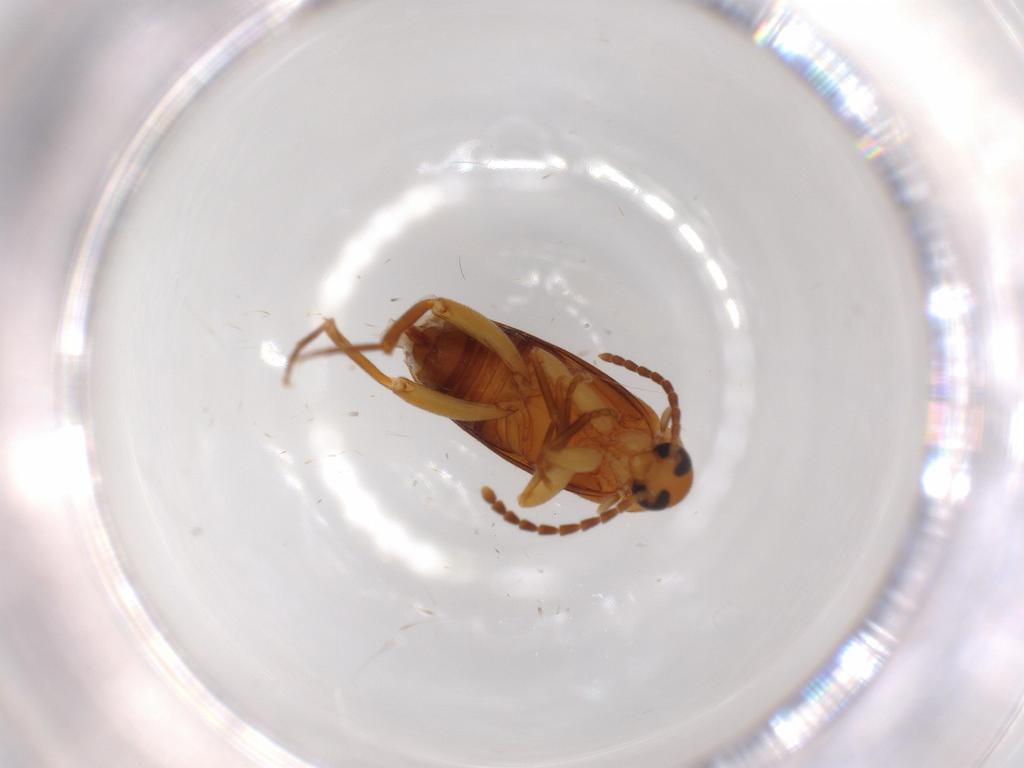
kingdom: Animalia
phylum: Arthropoda
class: Insecta
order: Coleoptera
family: Scraptiidae
